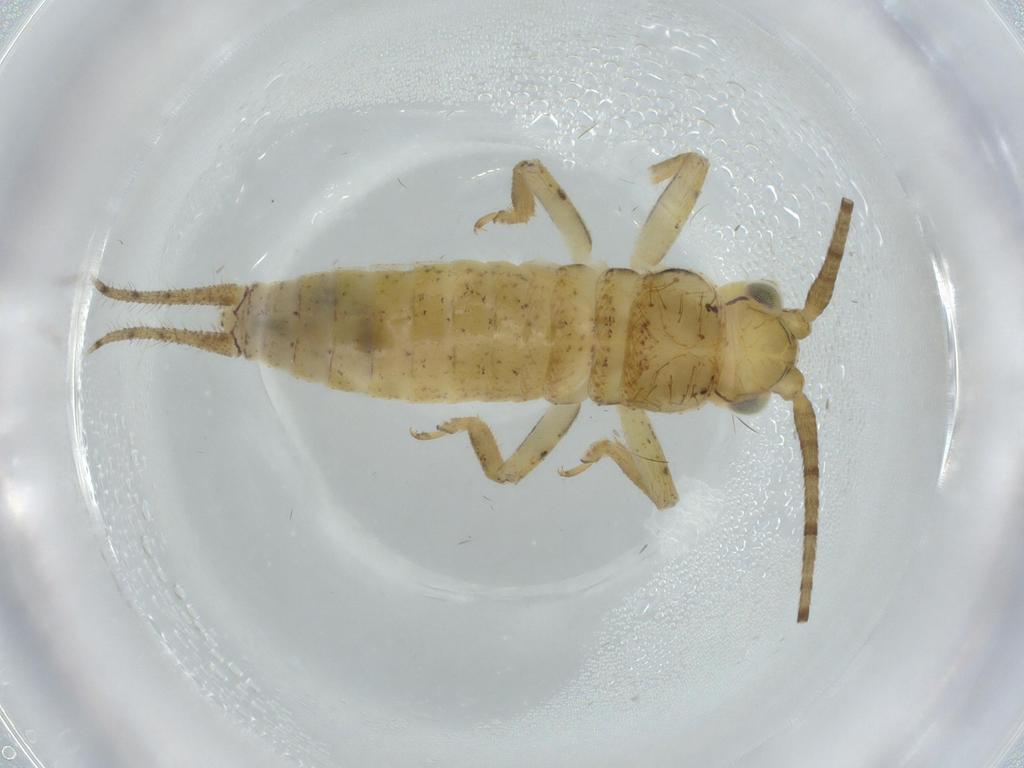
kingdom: Animalia
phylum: Arthropoda
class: Insecta
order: Orthoptera
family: Gryllidae
